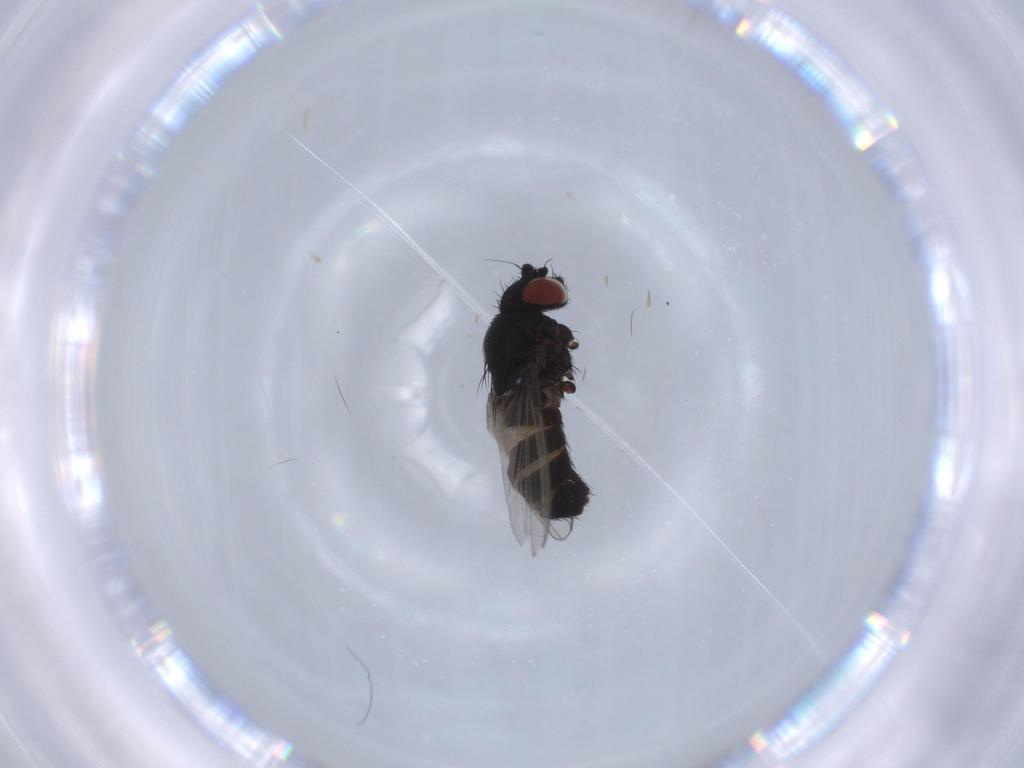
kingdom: Animalia
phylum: Arthropoda
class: Insecta
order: Diptera
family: Milichiidae
